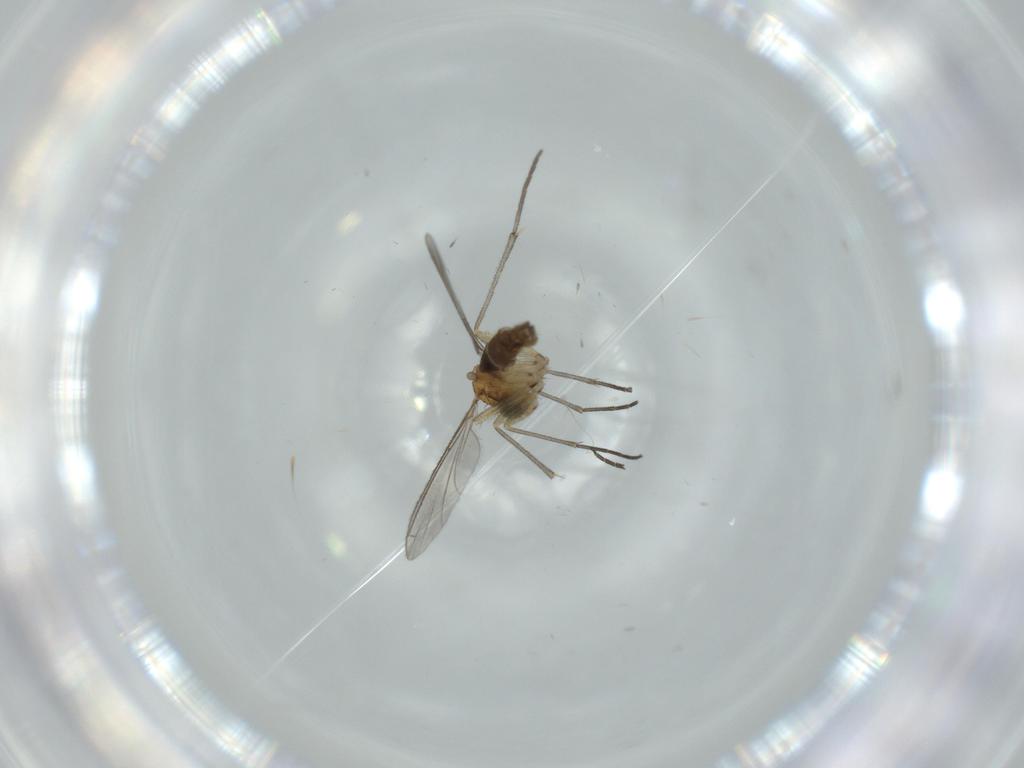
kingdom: Animalia
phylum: Arthropoda
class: Insecta
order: Diptera
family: Sciaridae
